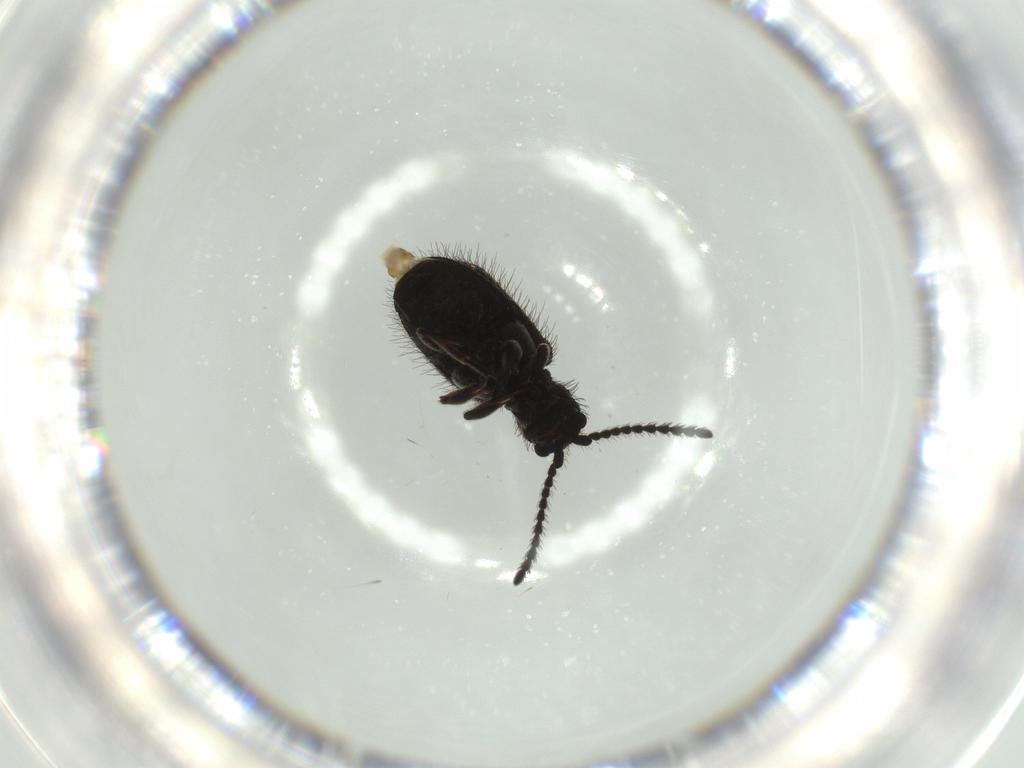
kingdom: Animalia
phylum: Arthropoda
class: Insecta
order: Coleoptera
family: Staphylinidae
